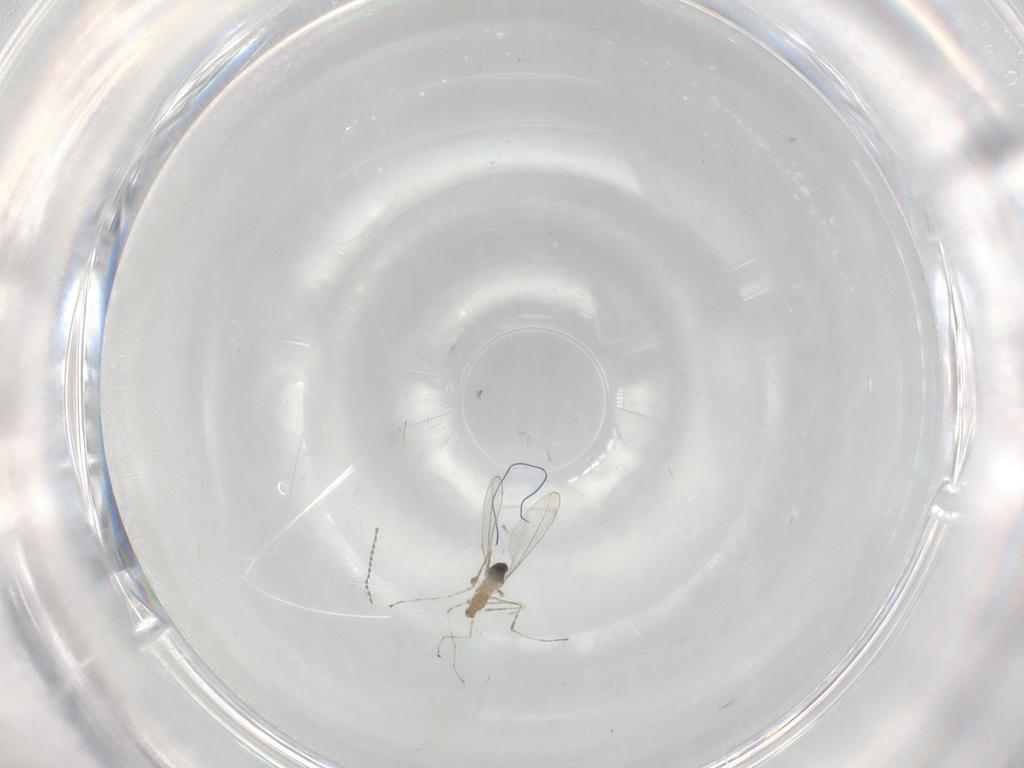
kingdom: Animalia
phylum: Arthropoda
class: Insecta
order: Diptera
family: Cecidomyiidae
